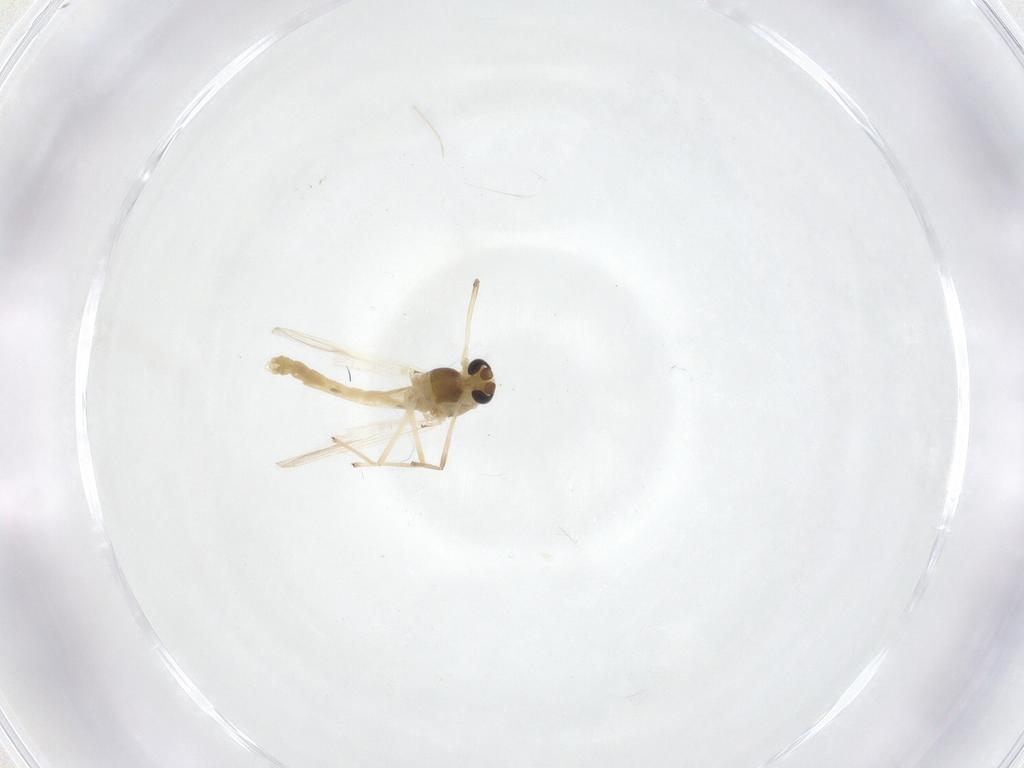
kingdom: Animalia
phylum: Arthropoda
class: Insecta
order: Diptera
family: Chironomidae
